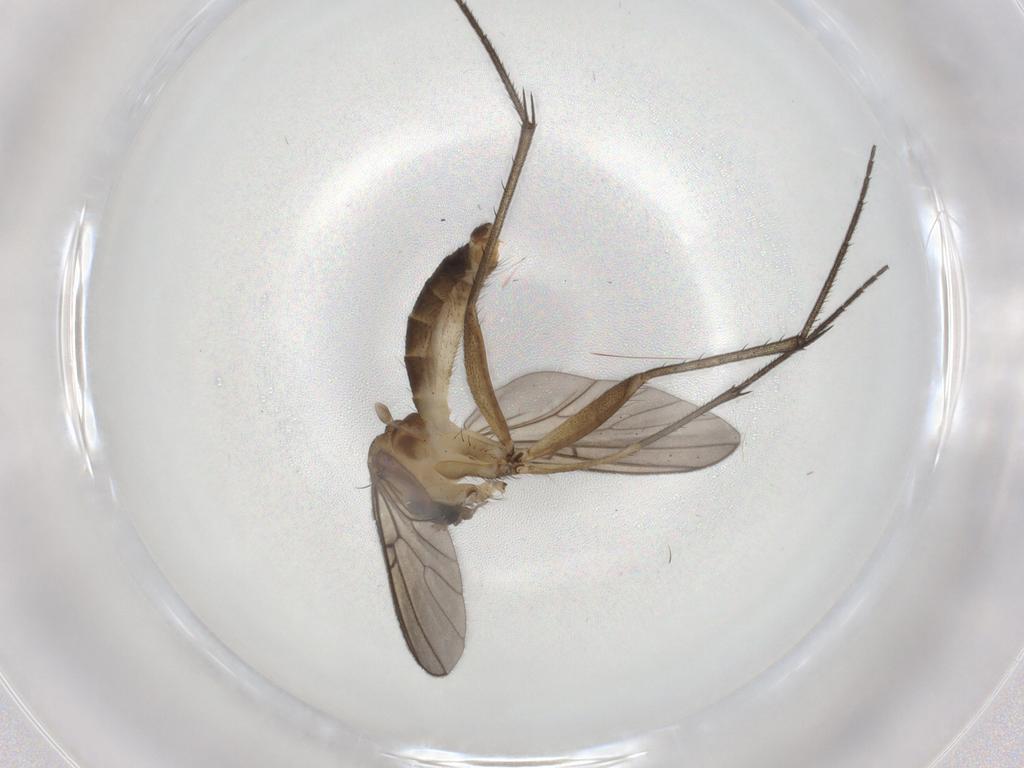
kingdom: Animalia
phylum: Arthropoda
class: Insecta
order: Diptera
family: Mycetophilidae
